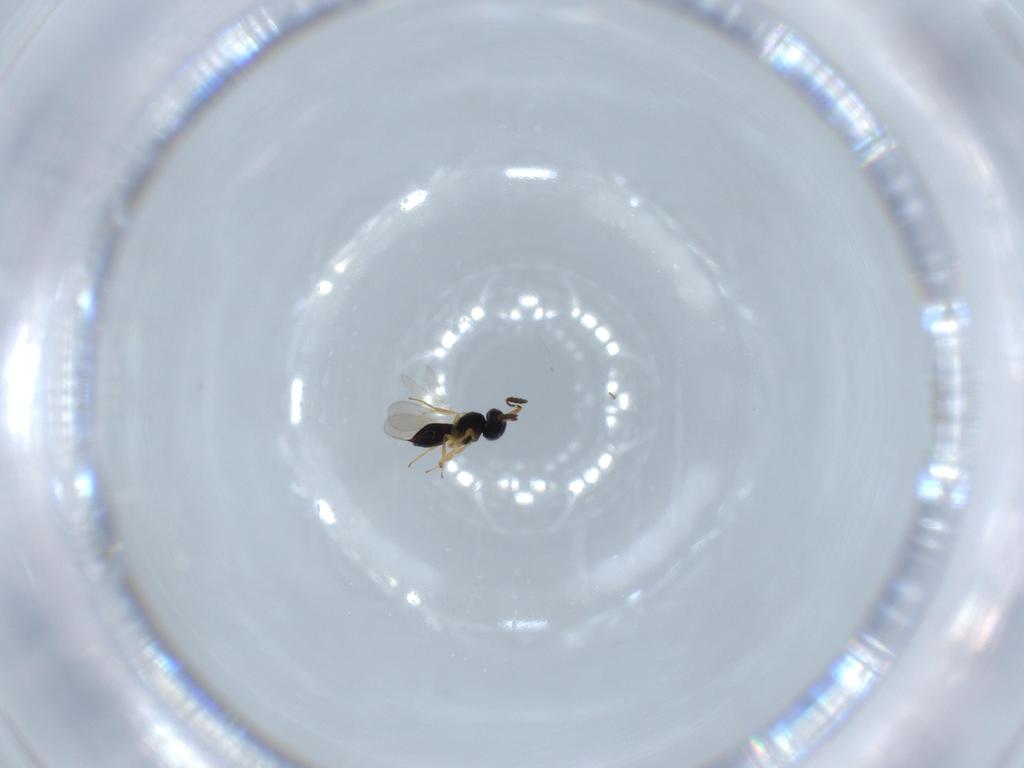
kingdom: Animalia
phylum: Arthropoda
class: Insecta
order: Hymenoptera
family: Scelionidae
